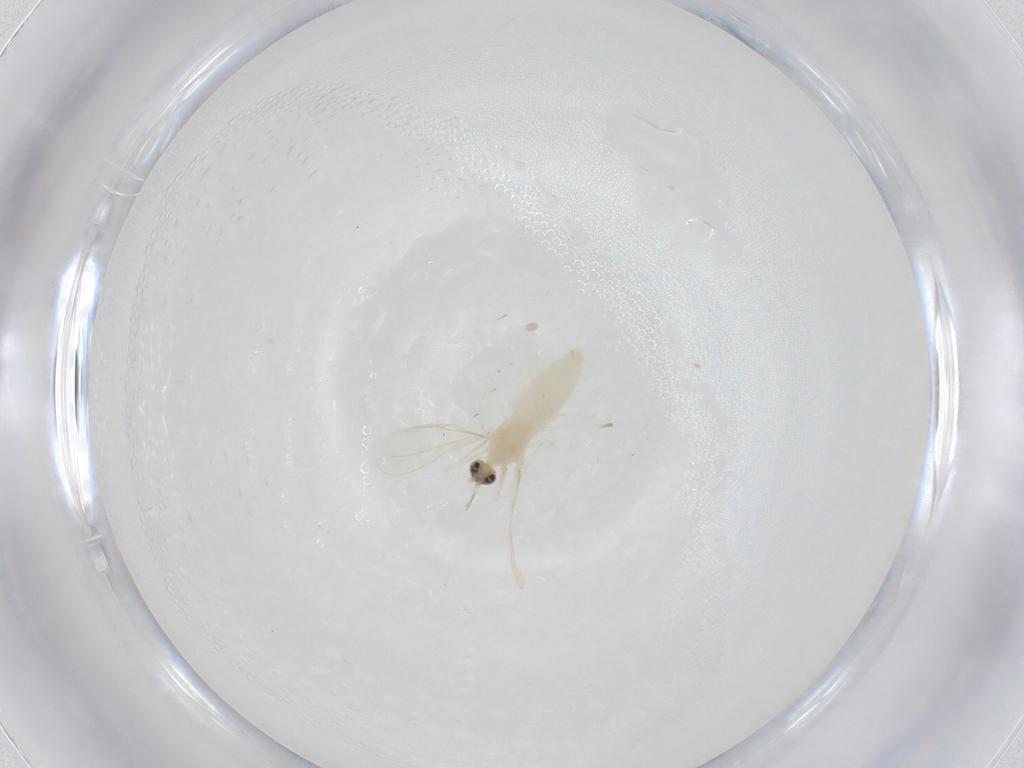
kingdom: Animalia
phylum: Arthropoda
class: Insecta
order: Diptera
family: Cecidomyiidae
